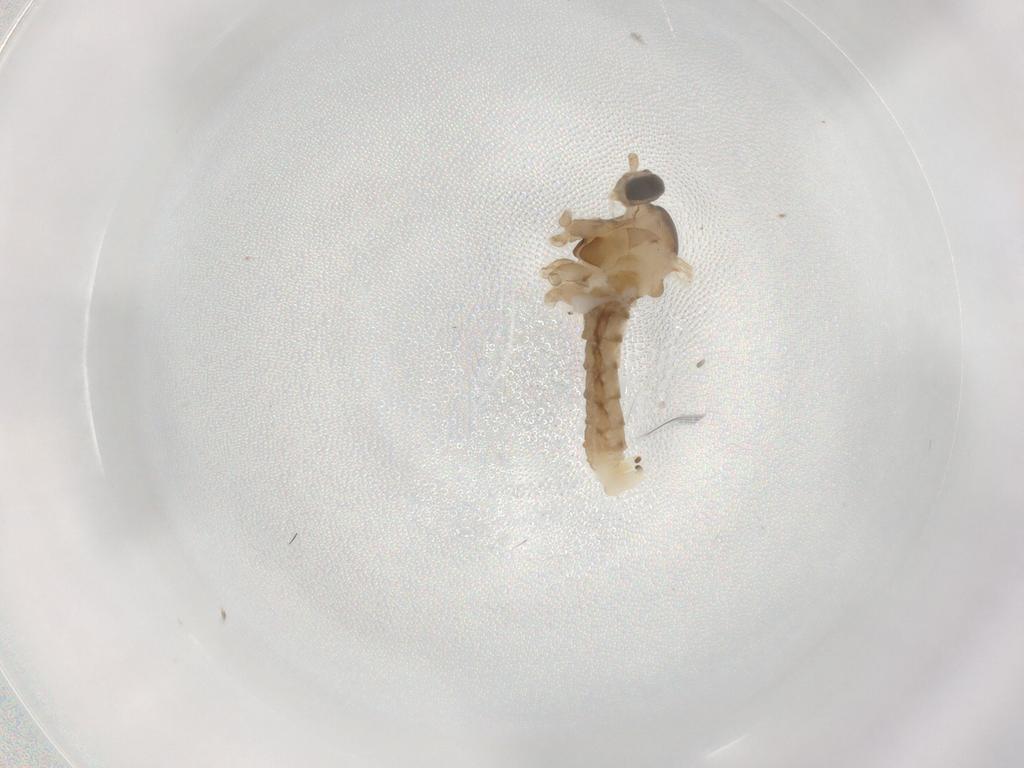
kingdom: Animalia
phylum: Arthropoda
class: Insecta
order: Diptera
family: Cecidomyiidae
